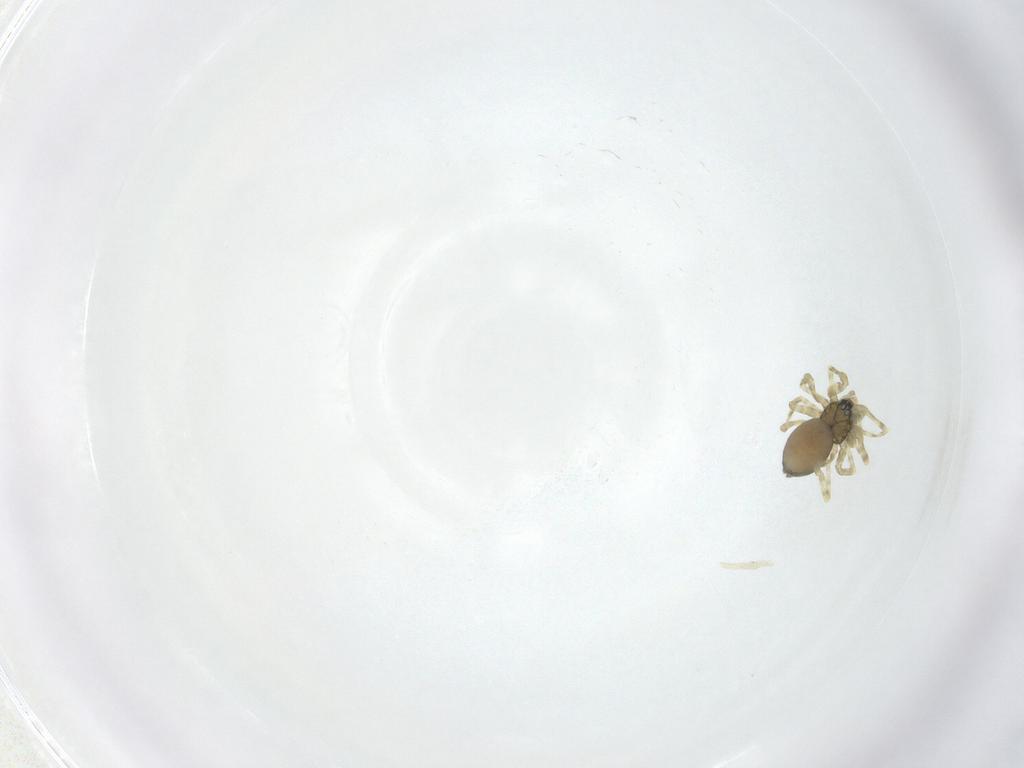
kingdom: Animalia
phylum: Arthropoda
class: Arachnida
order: Araneae
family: Linyphiidae
